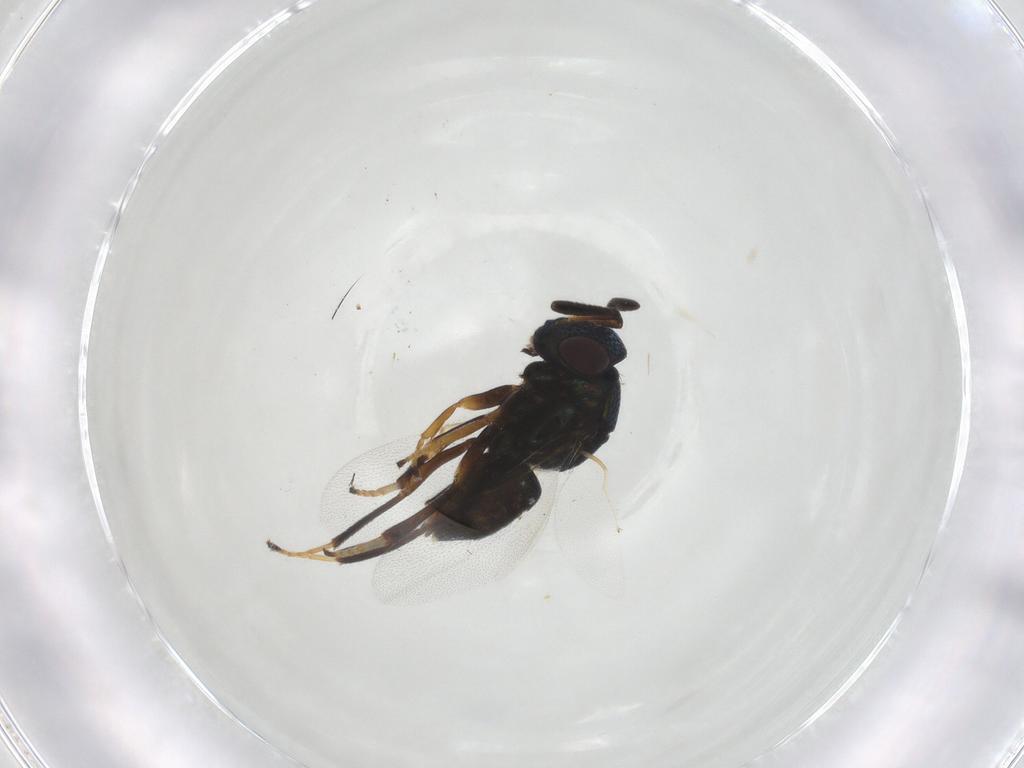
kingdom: Animalia
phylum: Arthropoda
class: Insecta
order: Hymenoptera
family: Encyrtidae
